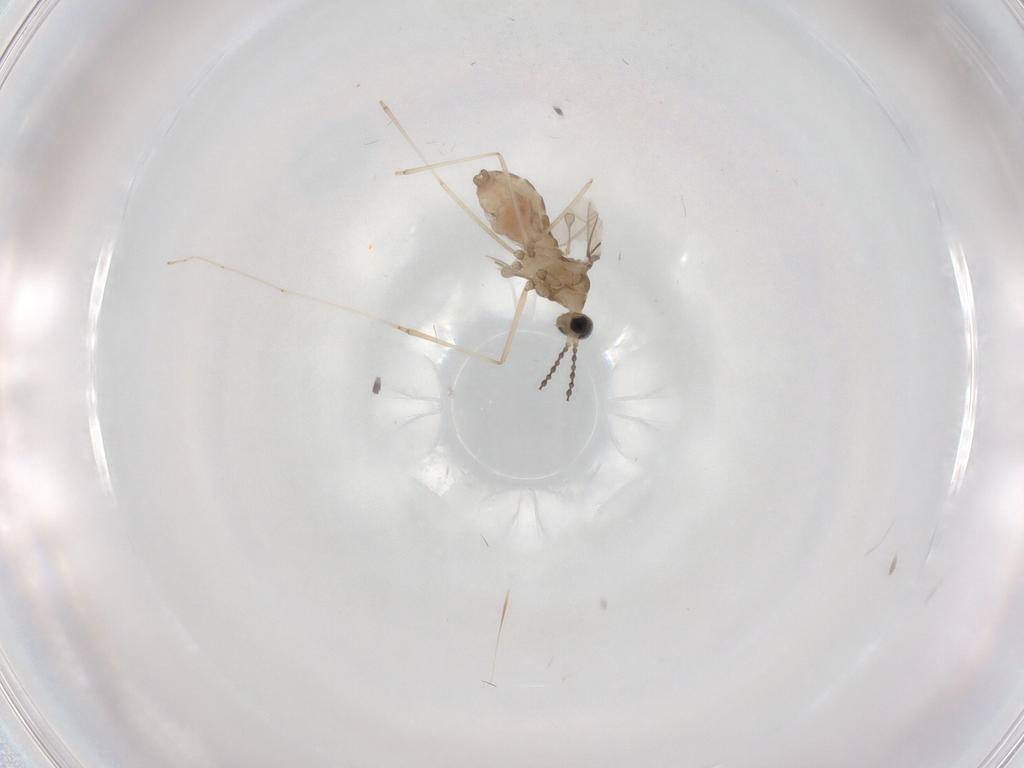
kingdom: Animalia
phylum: Arthropoda
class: Insecta
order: Diptera
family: Cecidomyiidae
